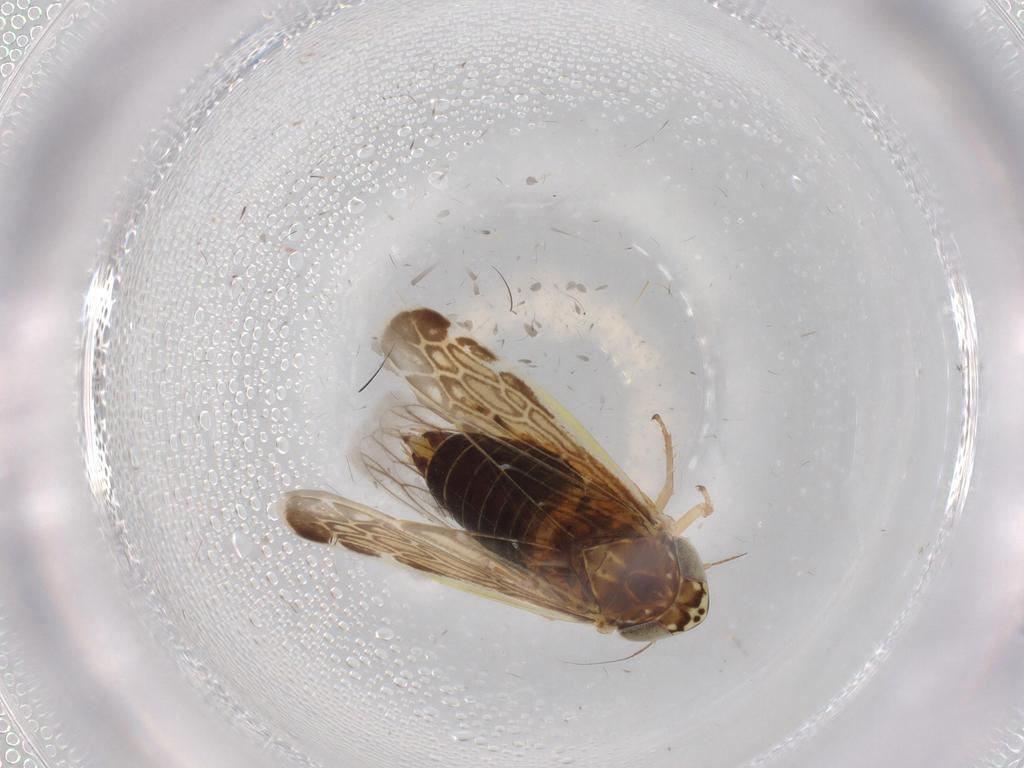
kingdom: Animalia
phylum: Arthropoda
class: Insecta
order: Hemiptera
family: Cicadellidae
